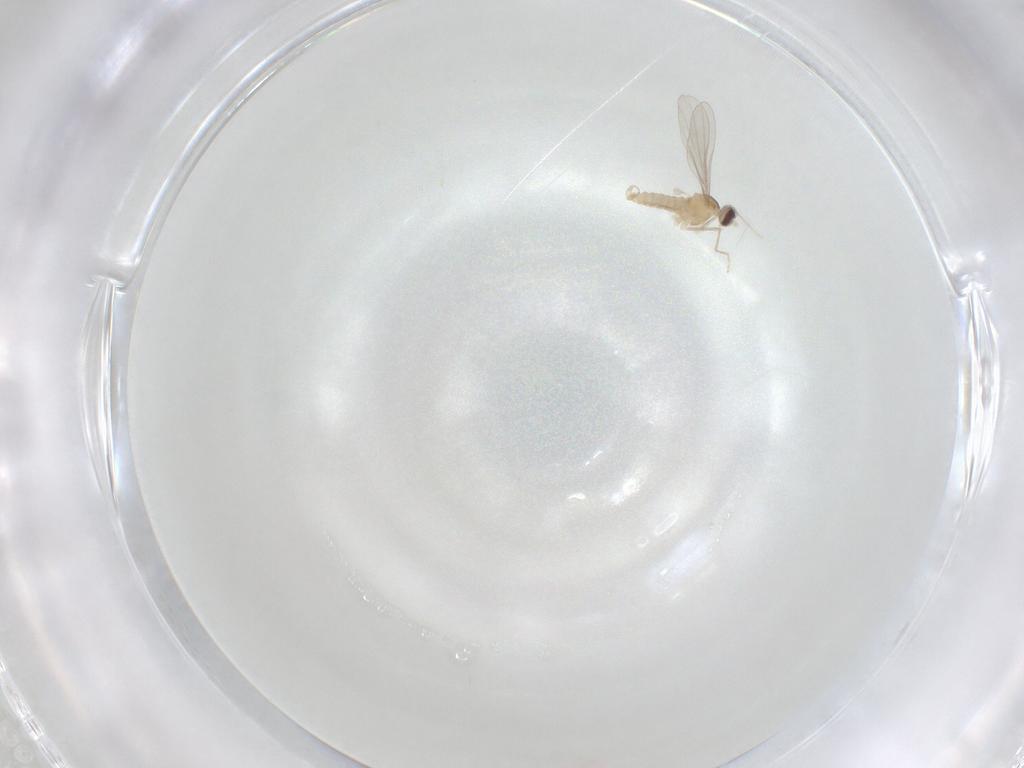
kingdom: Animalia
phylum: Arthropoda
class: Insecta
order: Diptera
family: Cecidomyiidae
